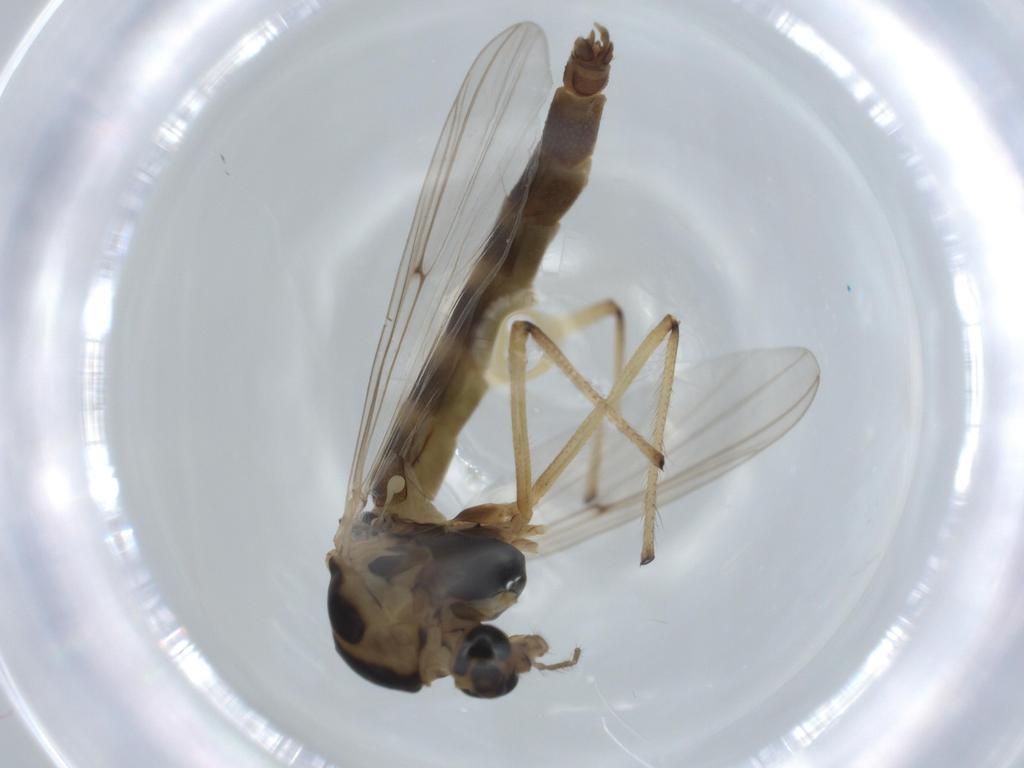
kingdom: Animalia
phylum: Arthropoda
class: Insecta
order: Diptera
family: Chironomidae
